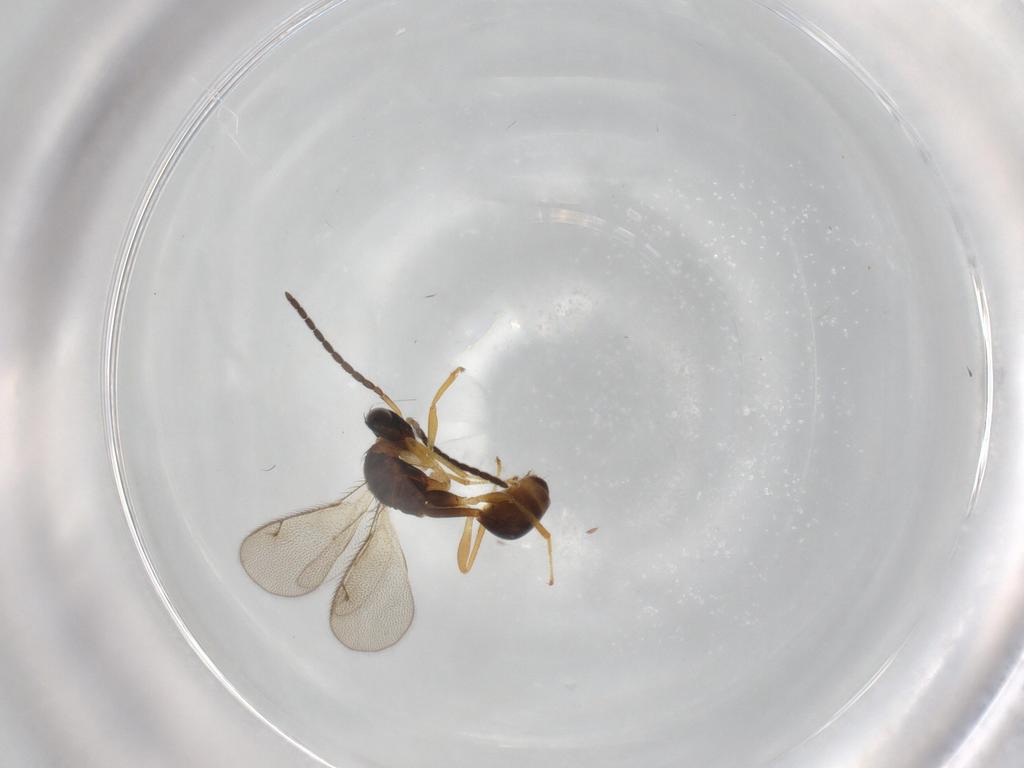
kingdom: Animalia
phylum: Arthropoda
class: Insecta
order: Hymenoptera
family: Diparidae
